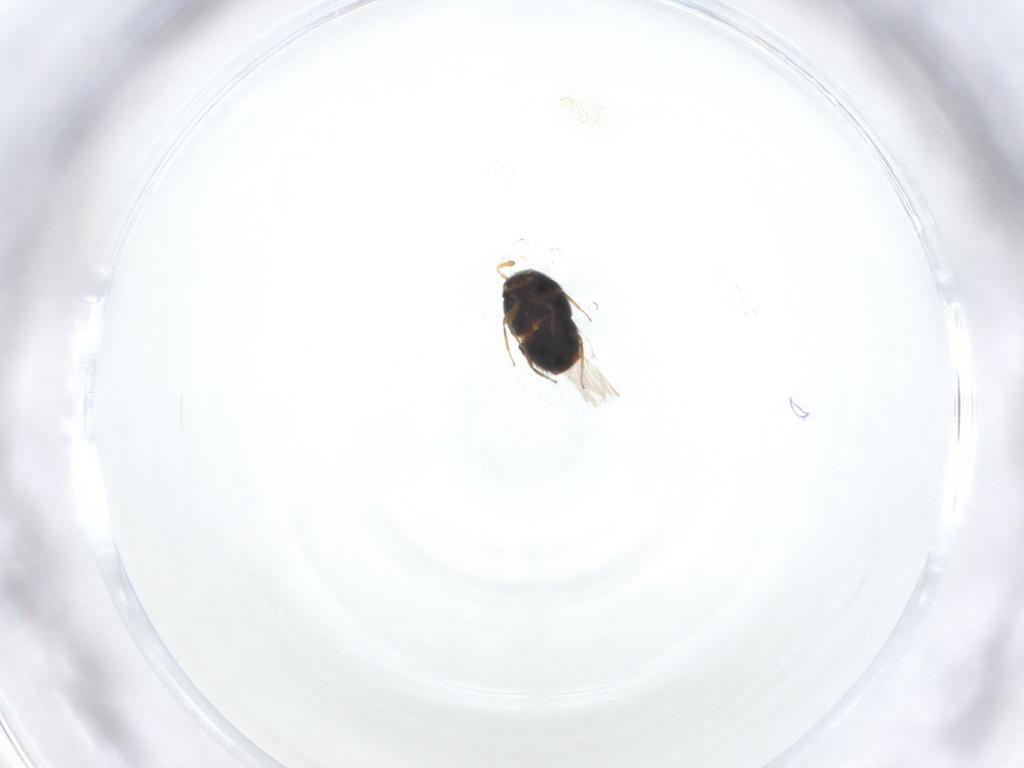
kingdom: Animalia
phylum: Arthropoda
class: Insecta
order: Coleoptera
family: Staphylinidae
